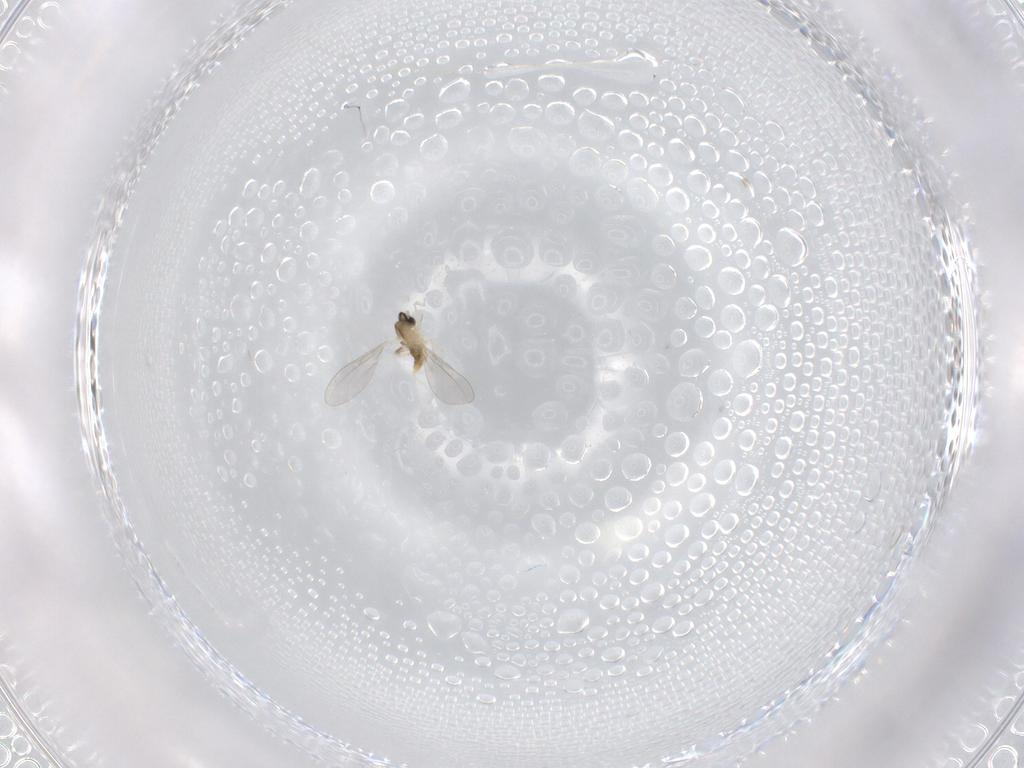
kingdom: Animalia
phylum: Arthropoda
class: Insecta
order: Diptera
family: Cecidomyiidae
